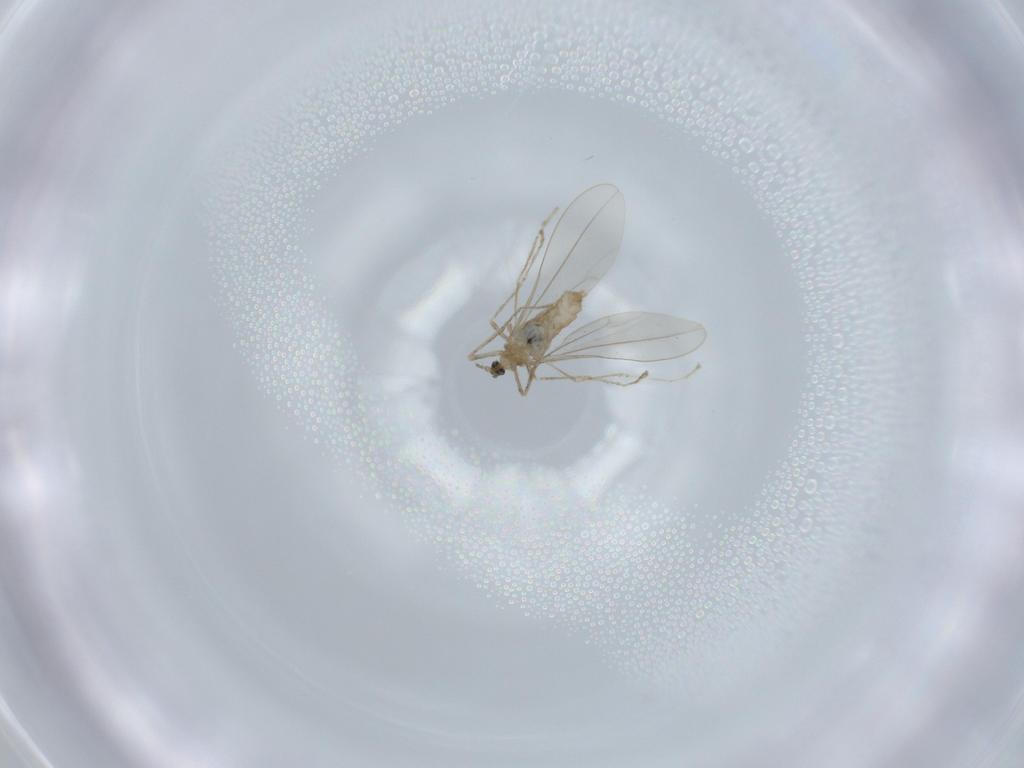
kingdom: Animalia
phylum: Arthropoda
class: Insecta
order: Diptera
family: Cecidomyiidae
